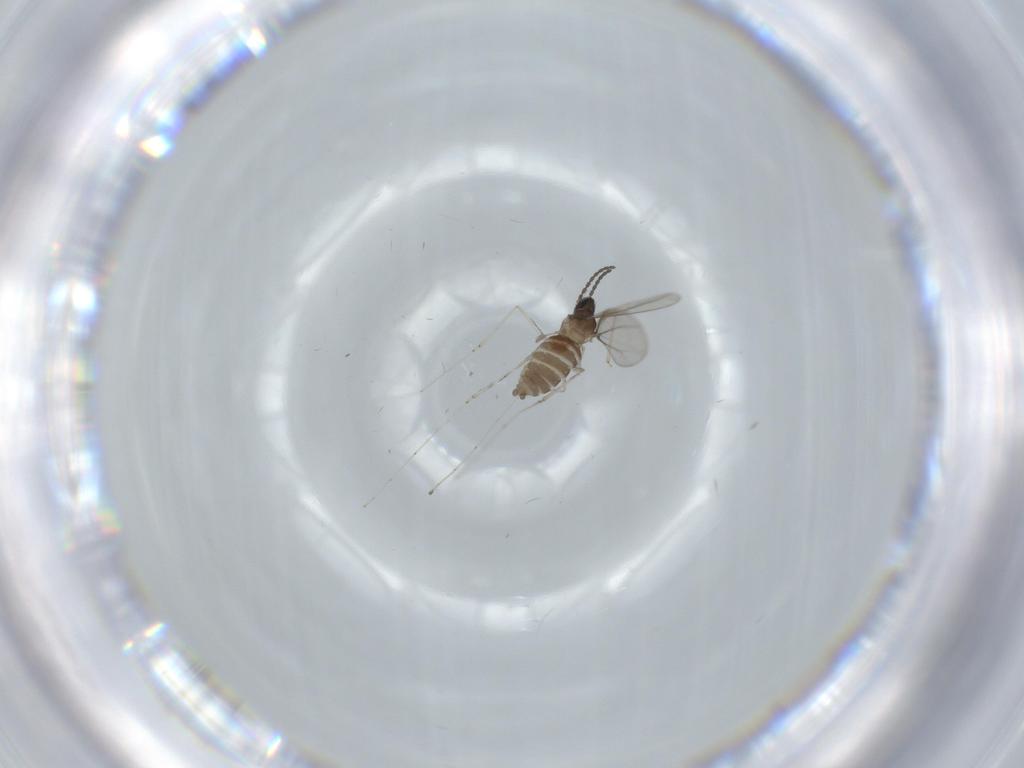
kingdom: Animalia
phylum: Arthropoda
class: Insecta
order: Diptera
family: Cecidomyiidae
